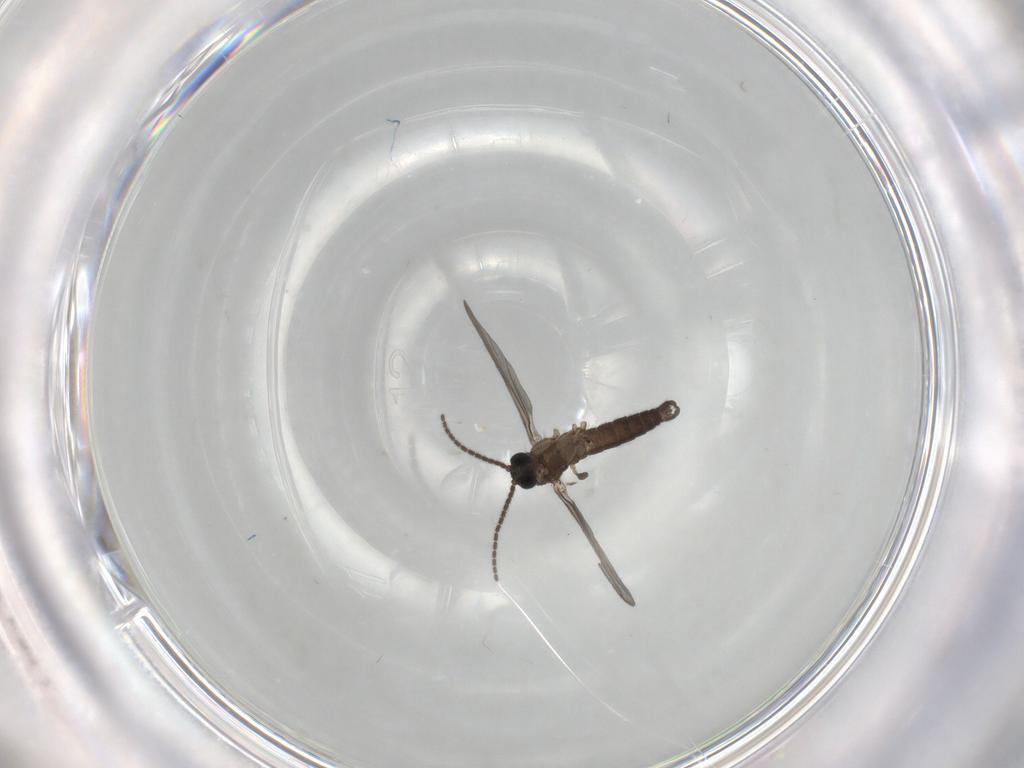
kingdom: Animalia
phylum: Arthropoda
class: Insecta
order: Diptera
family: Sciaridae
